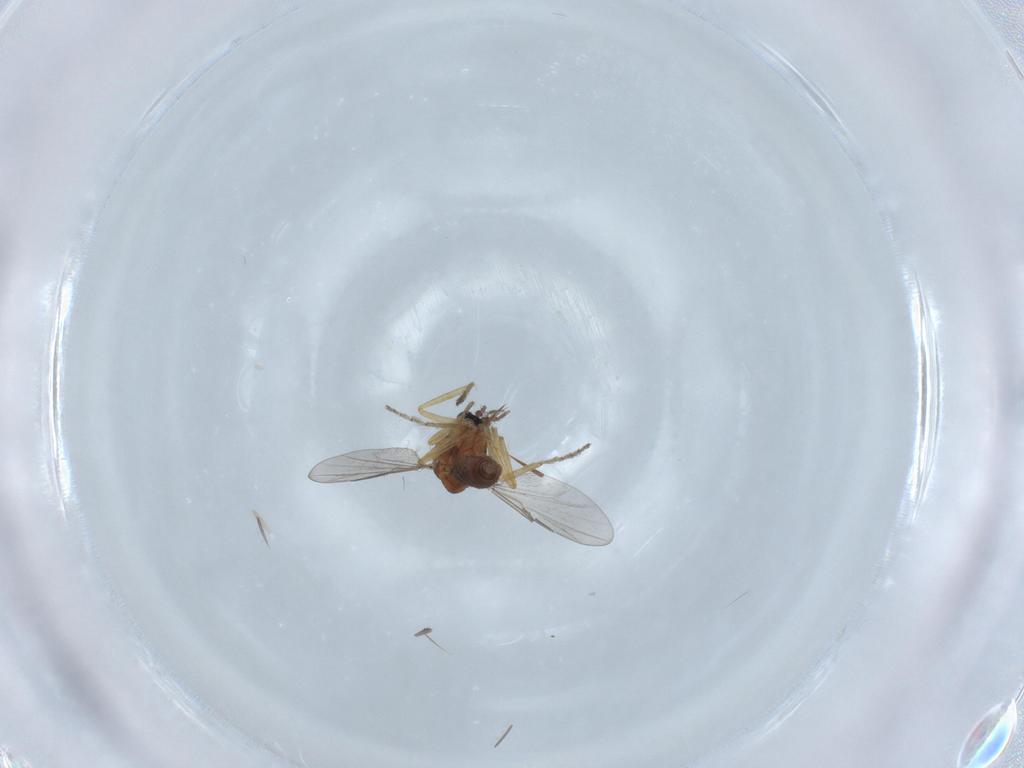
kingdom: Animalia
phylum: Arthropoda
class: Insecta
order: Diptera
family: Ceratopogonidae
